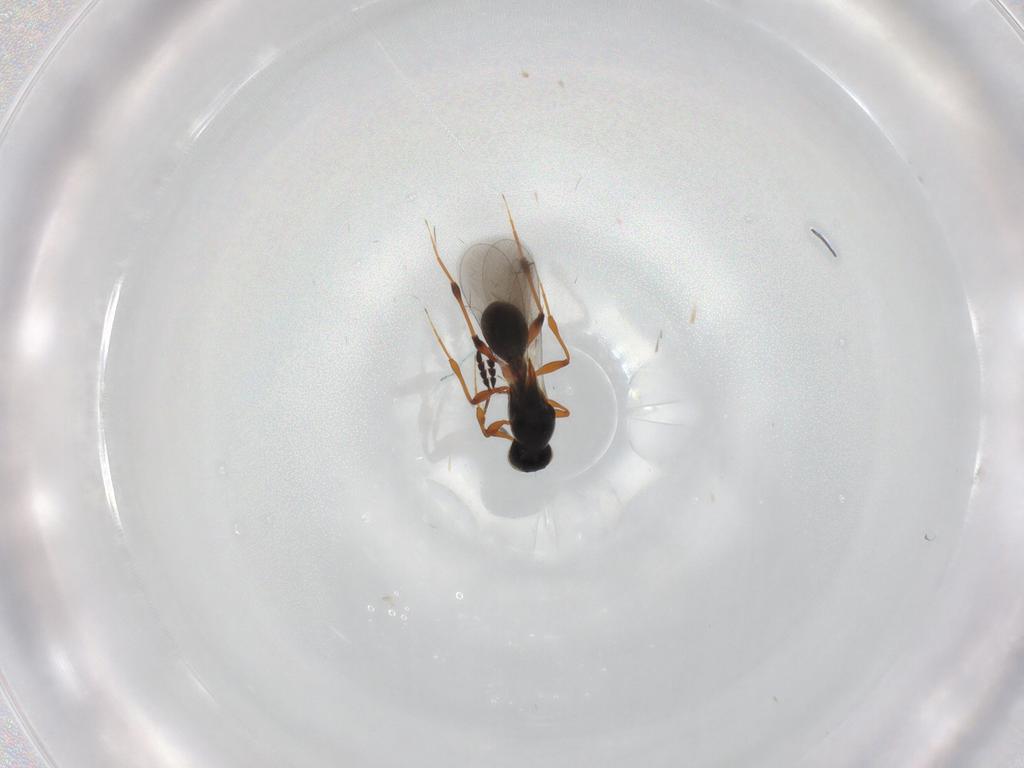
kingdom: Animalia
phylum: Arthropoda
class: Insecta
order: Hymenoptera
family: Platygastridae
